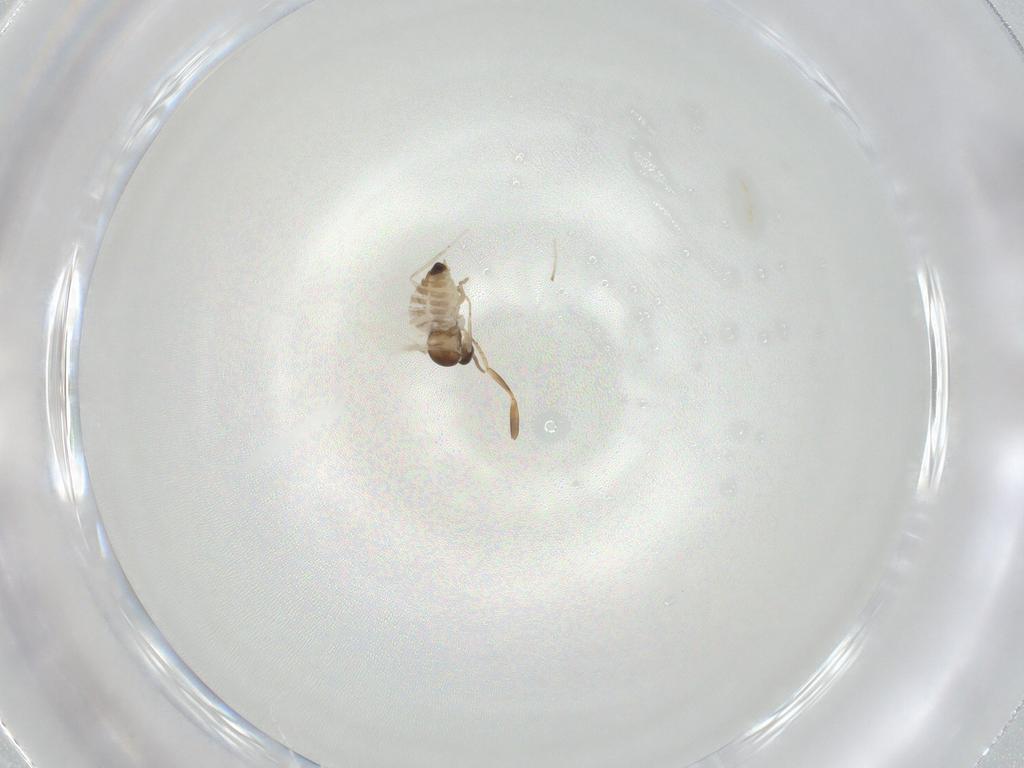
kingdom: Animalia
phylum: Arthropoda
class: Insecta
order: Diptera
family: Cecidomyiidae
